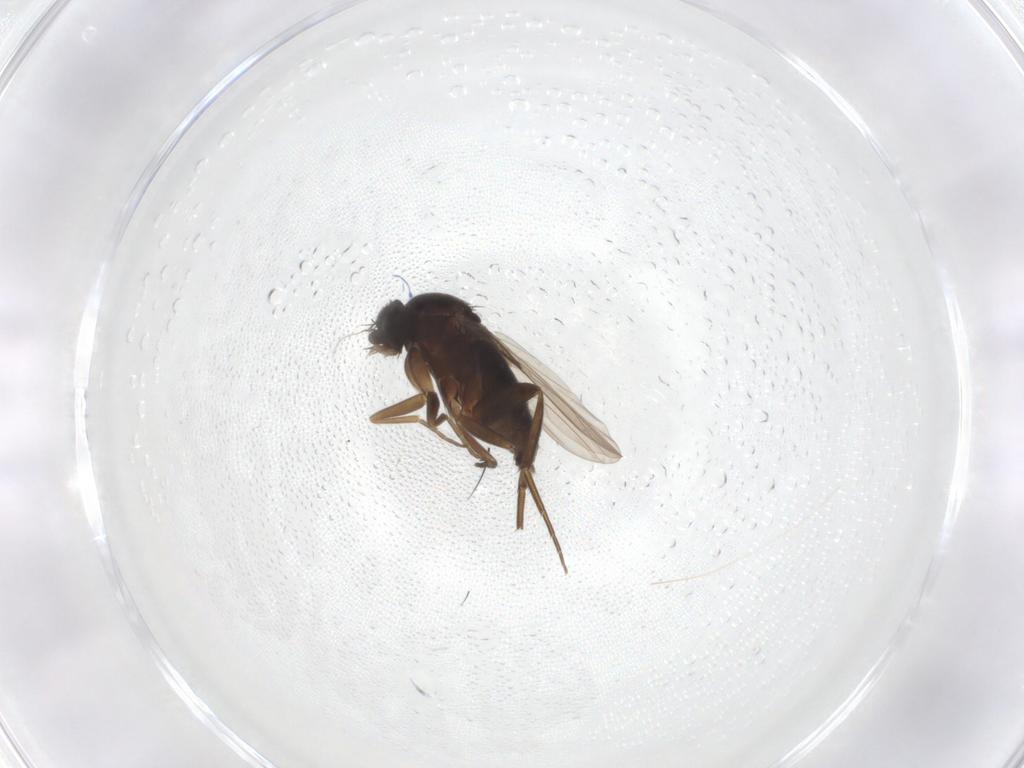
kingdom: Animalia
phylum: Arthropoda
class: Insecta
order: Diptera
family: Phoridae
